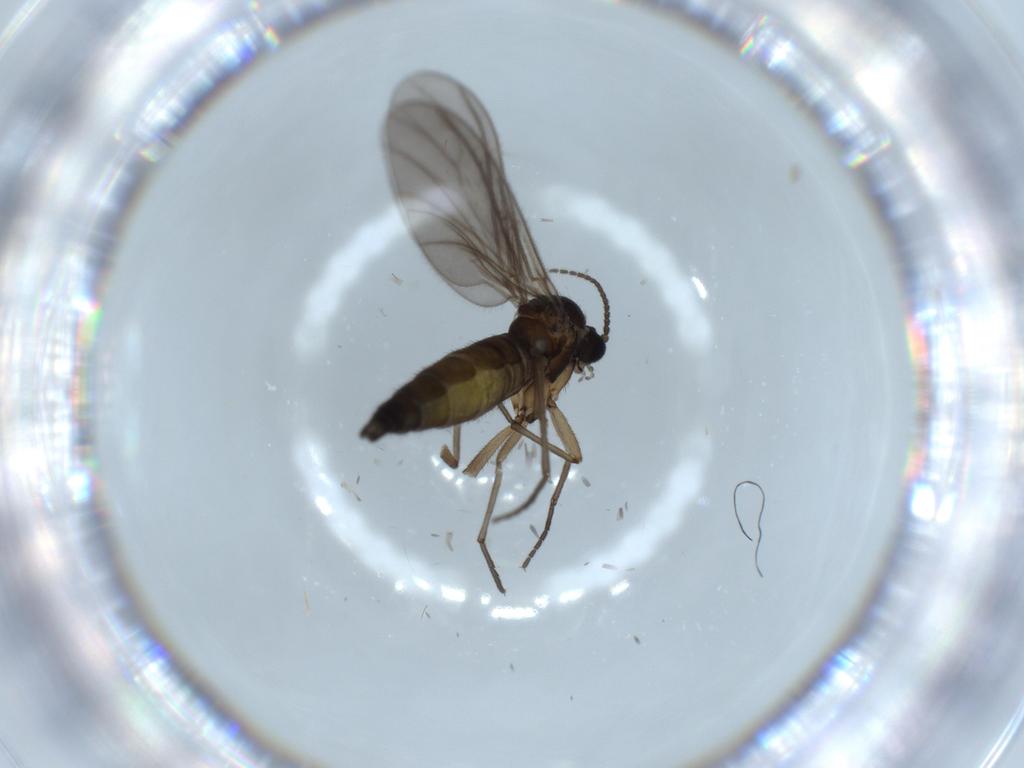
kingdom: Animalia
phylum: Arthropoda
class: Insecta
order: Diptera
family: Sciaridae
